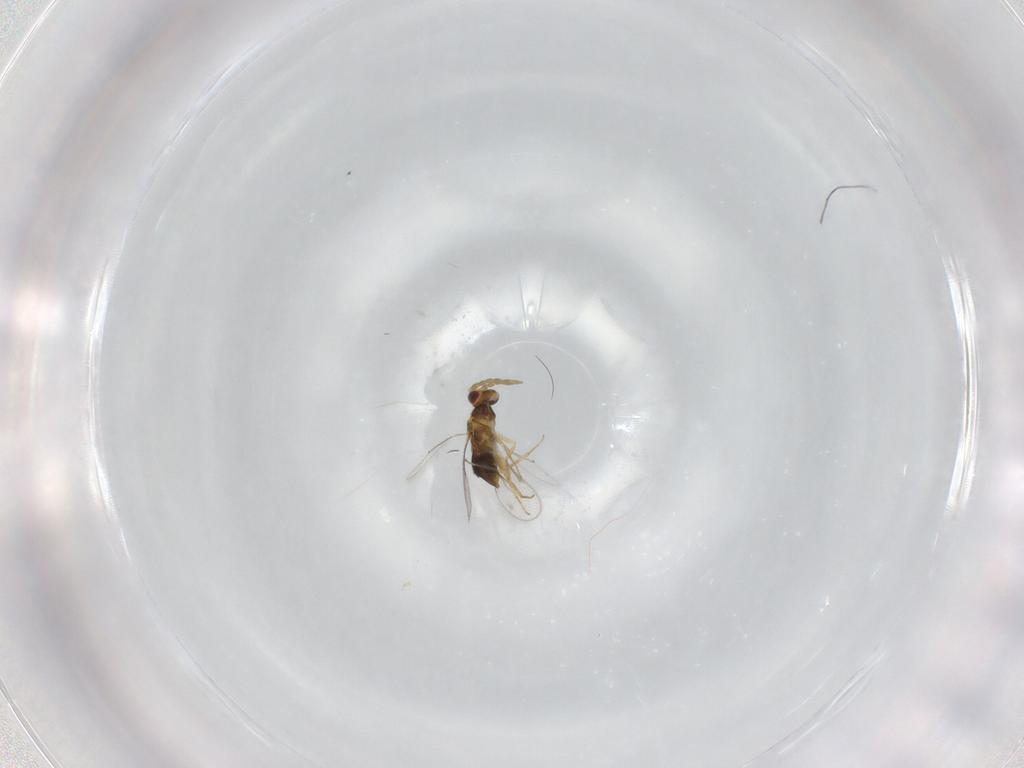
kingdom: Animalia
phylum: Arthropoda
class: Insecta
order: Hymenoptera
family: Aphelinidae
